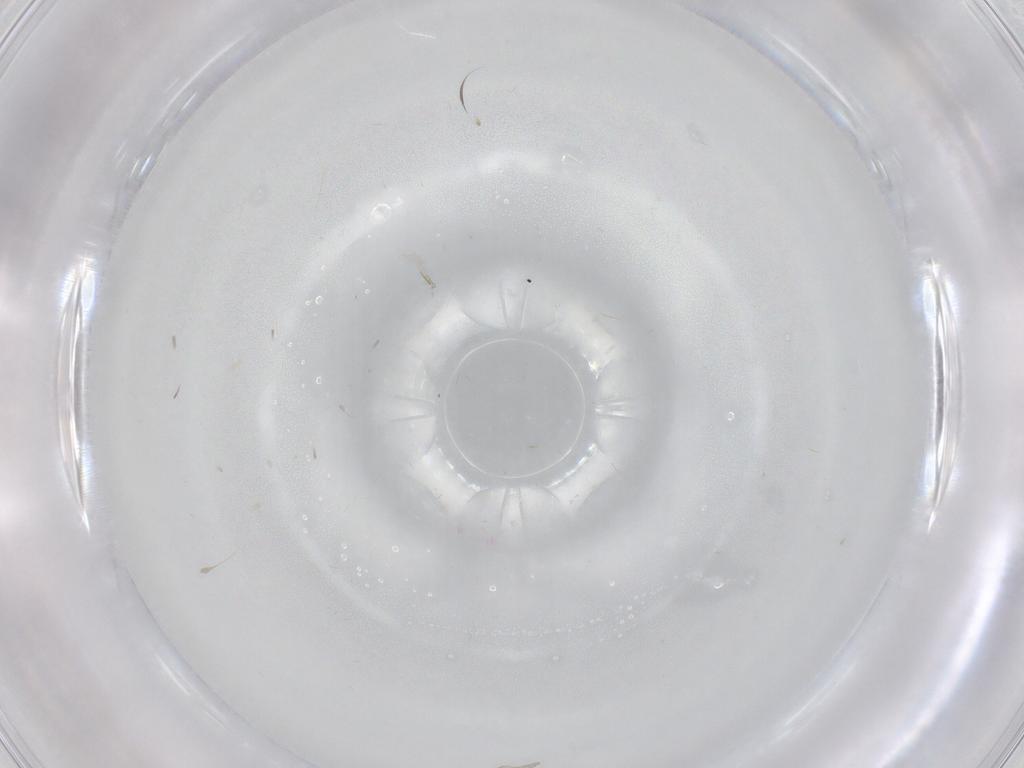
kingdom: Animalia
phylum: Arthropoda
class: Insecta
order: Diptera
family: Cecidomyiidae
